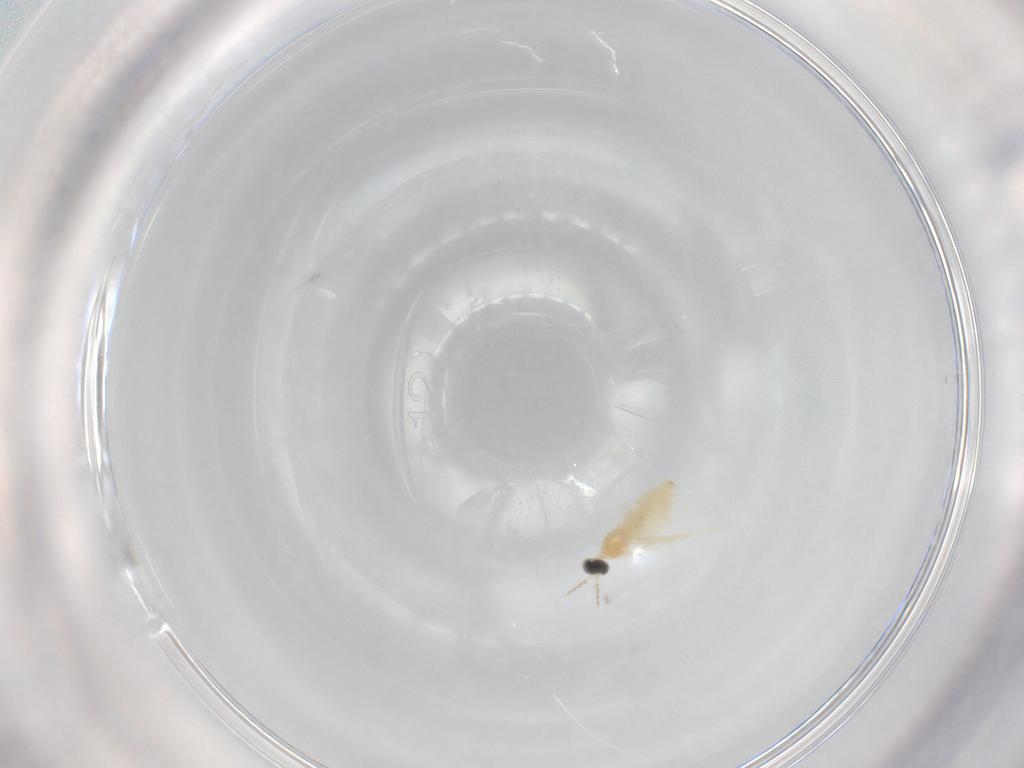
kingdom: Animalia
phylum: Arthropoda
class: Insecta
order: Diptera
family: Cecidomyiidae
